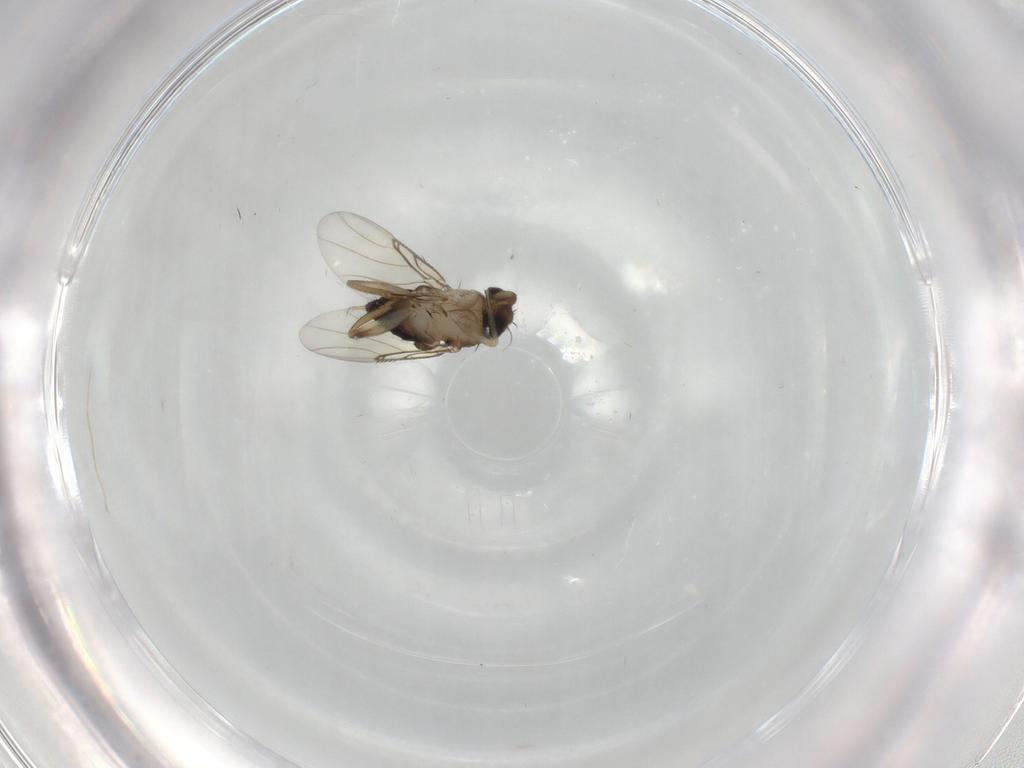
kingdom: Animalia
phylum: Arthropoda
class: Insecta
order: Diptera
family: Phoridae
